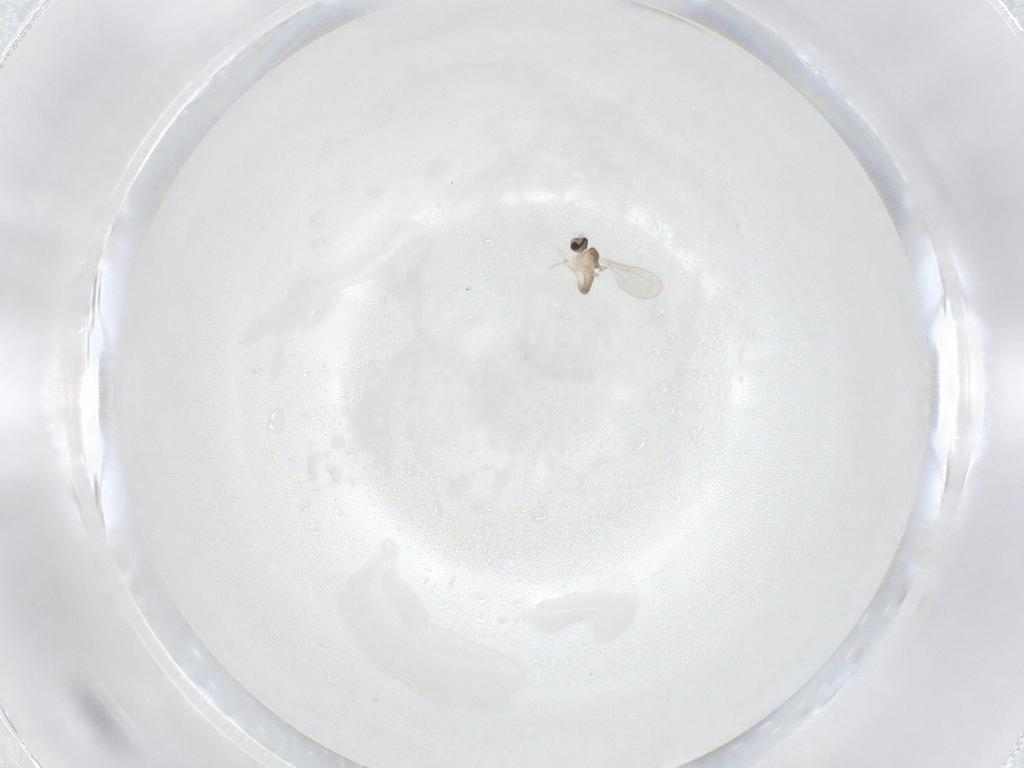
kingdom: Animalia
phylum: Arthropoda
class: Insecta
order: Diptera
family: Cecidomyiidae
